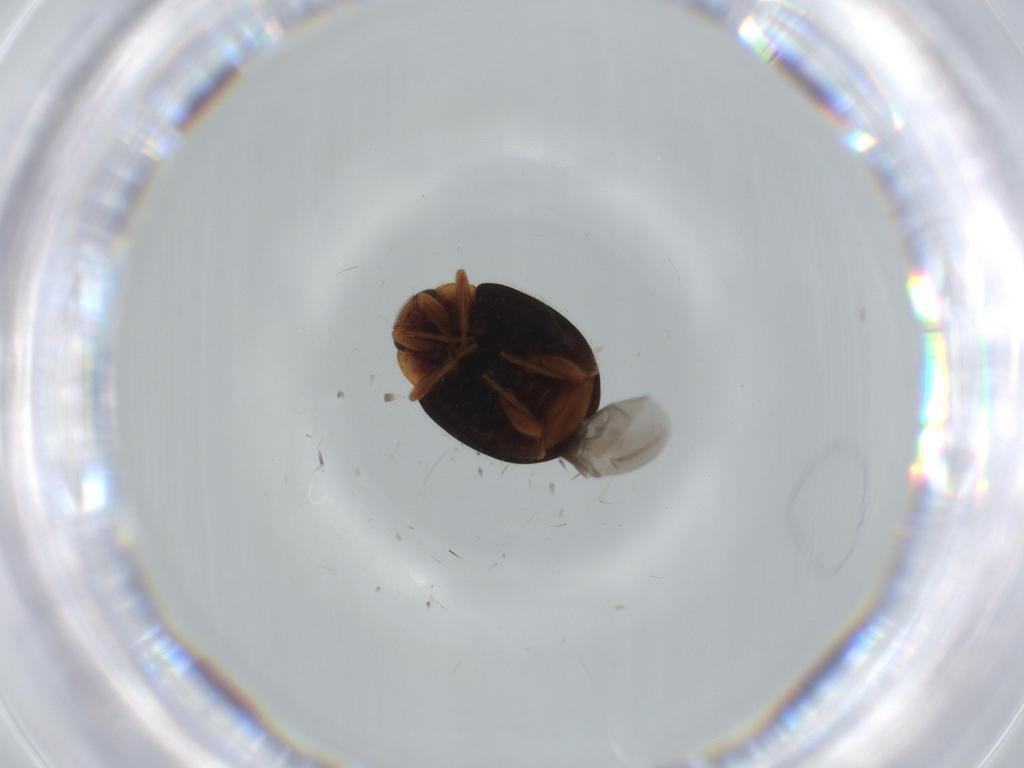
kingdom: Animalia
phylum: Arthropoda
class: Insecta
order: Coleoptera
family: Coccinellidae
